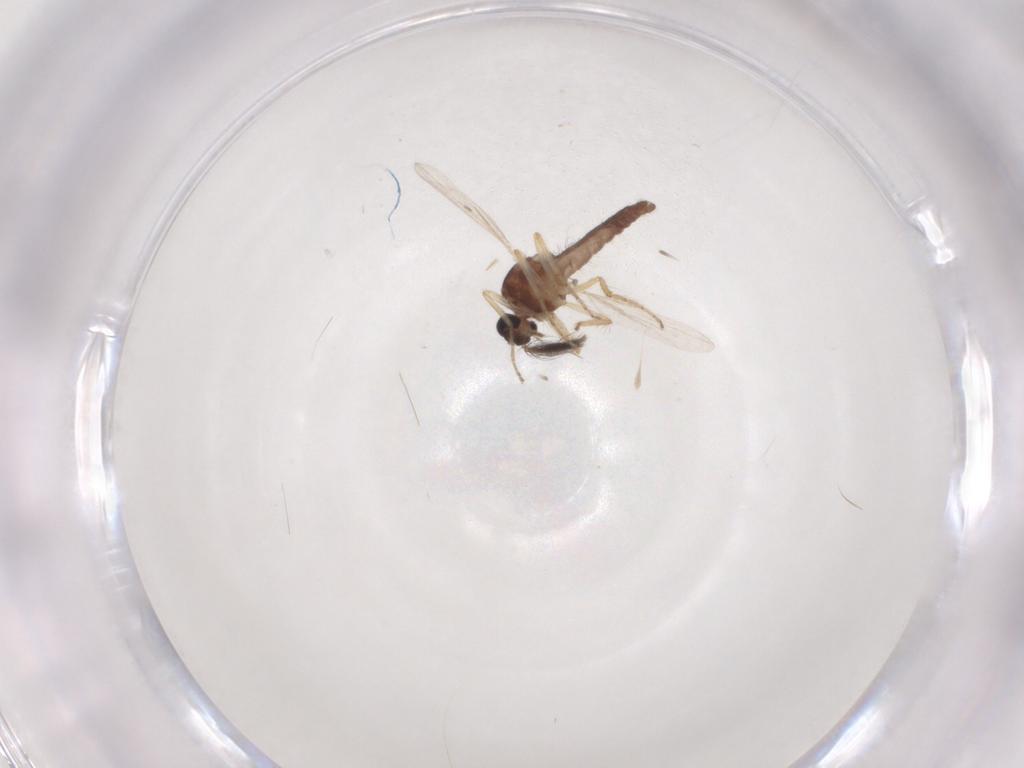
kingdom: Animalia
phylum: Arthropoda
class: Insecta
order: Diptera
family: Ceratopogonidae
